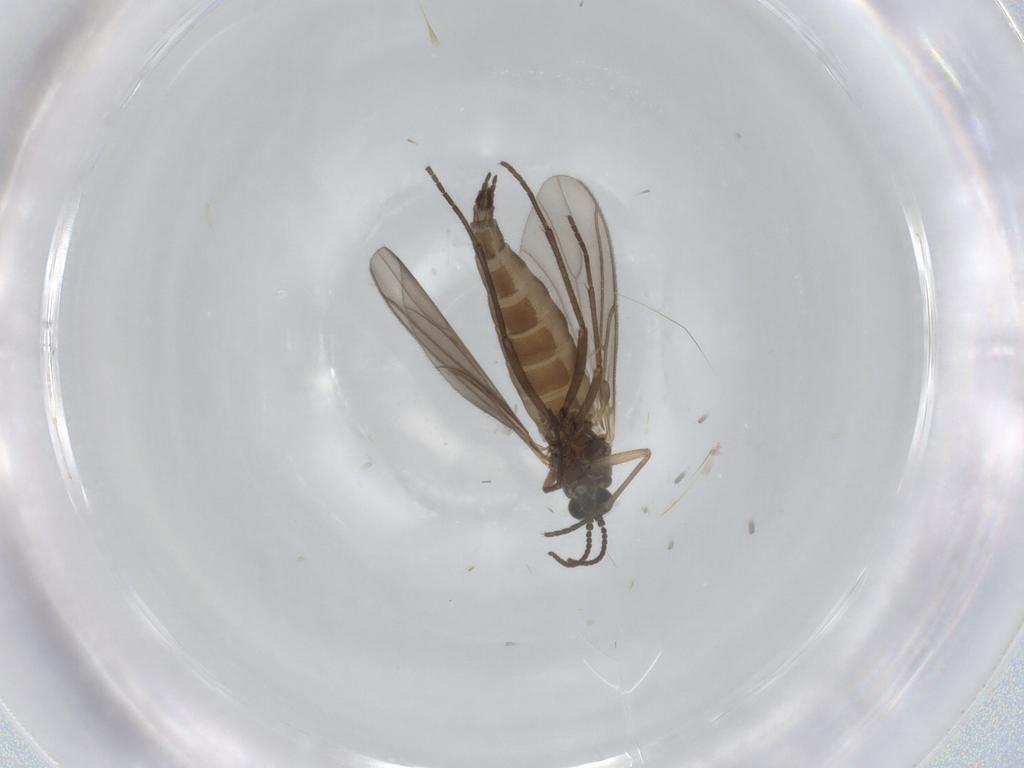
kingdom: Animalia
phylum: Arthropoda
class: Insecta
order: Diptera
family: Sciaridae
